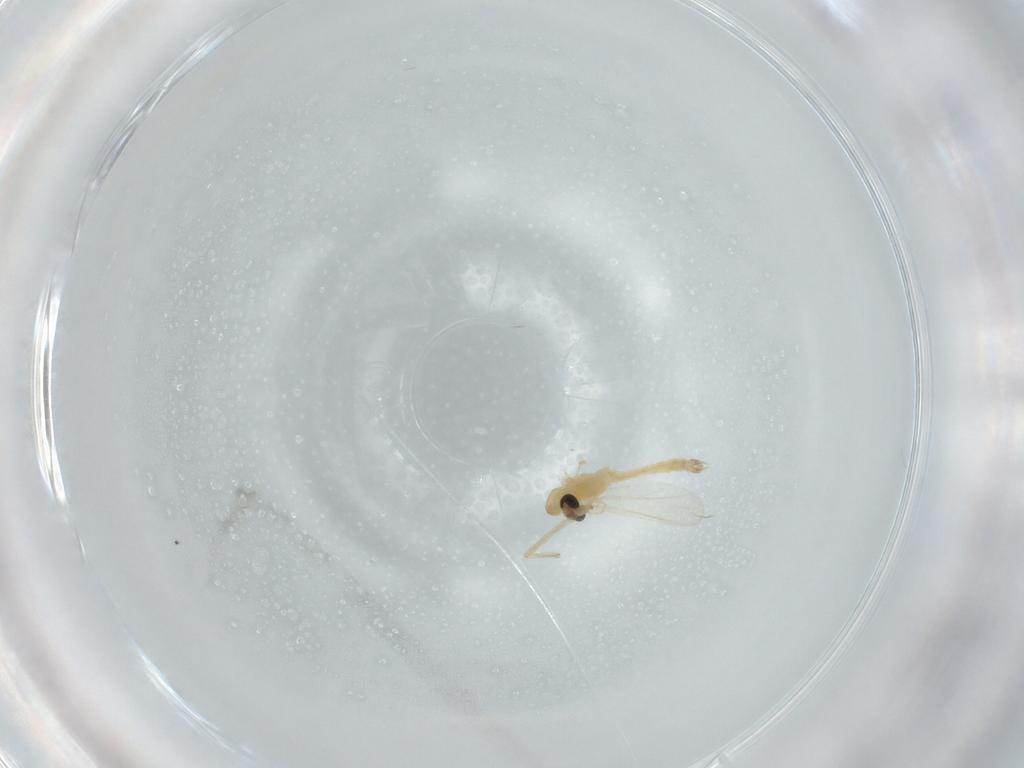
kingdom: Animalia
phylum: Arthropoda
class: Insecta
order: Diptera
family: Chironomidae
